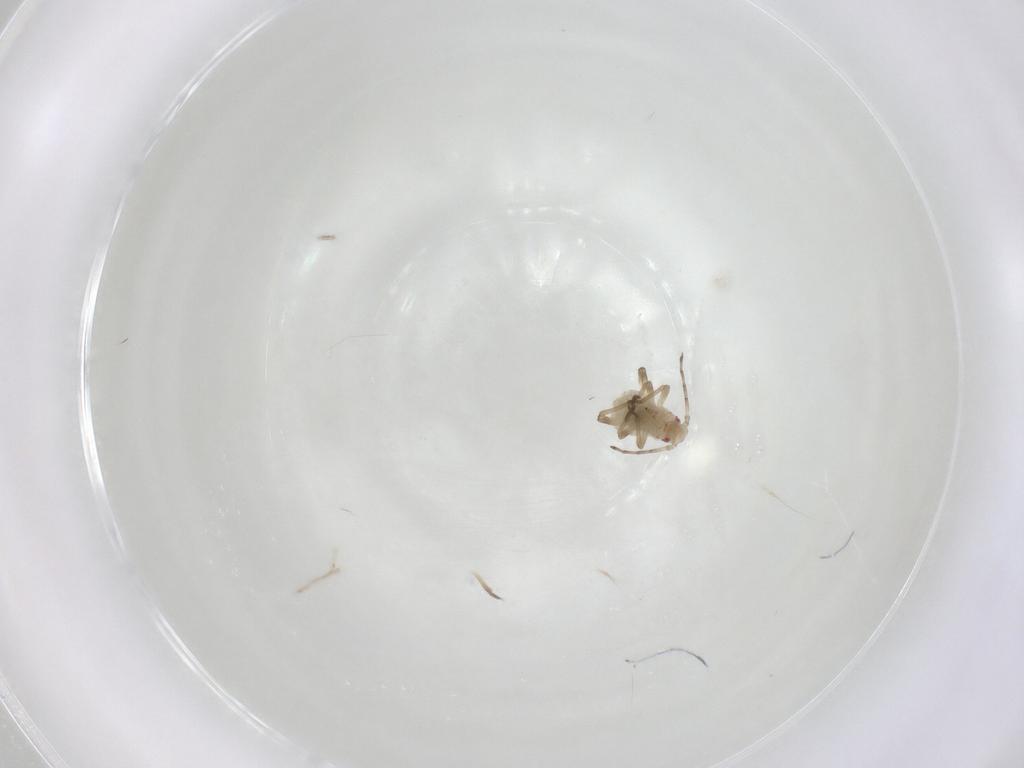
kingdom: Animalia
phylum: Arthropoda
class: Insecta
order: Hemiptera
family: Aphididae
